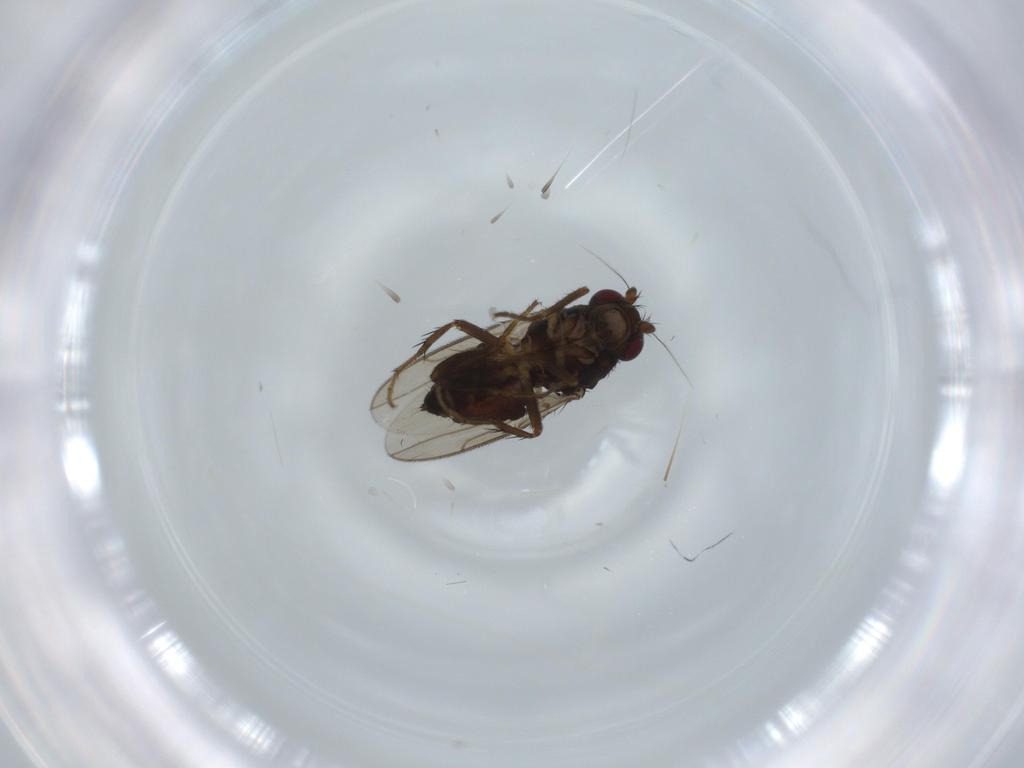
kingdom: Animalia
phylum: Arthropoda
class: Insecta
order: Diptera
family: Sphaeroceridae
